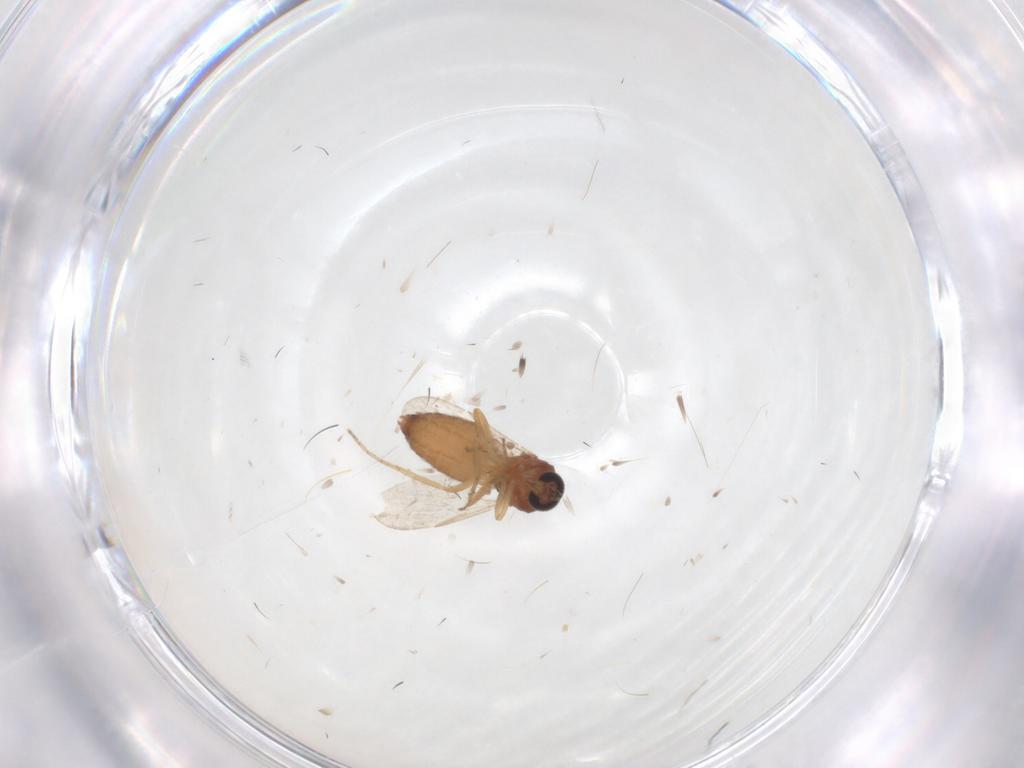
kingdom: Animalia
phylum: Arthropoda
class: Insecta
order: Diptera
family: Ceratopogonidae
